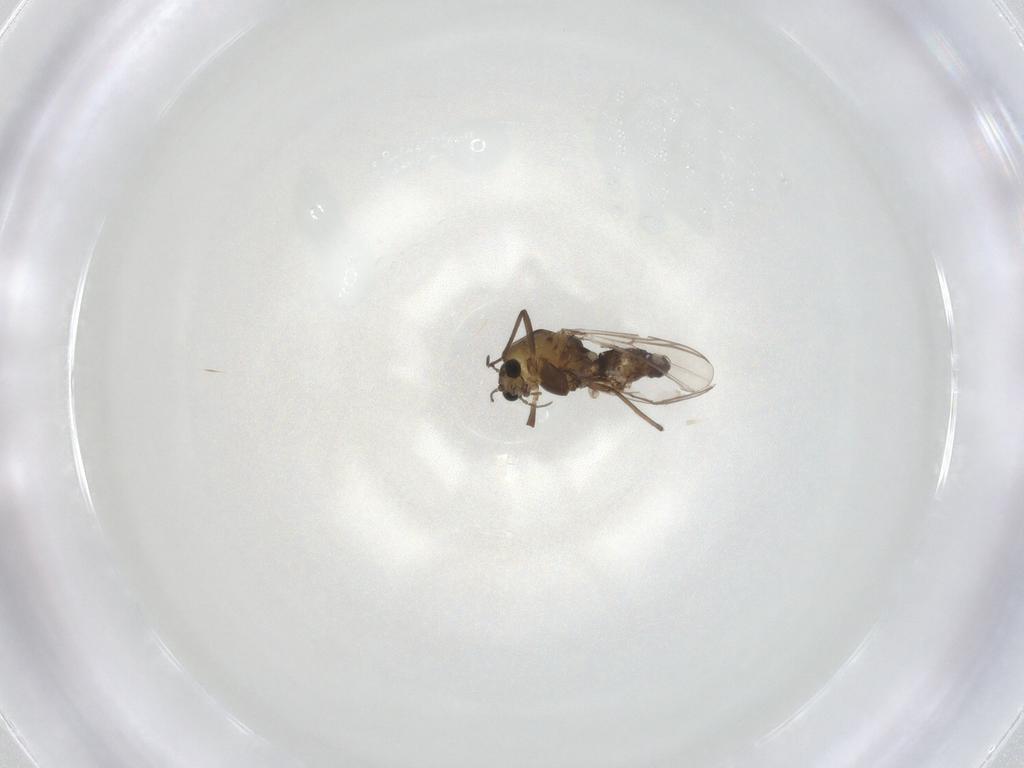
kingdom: Animalia
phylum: Arthropoda
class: Insecta
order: Diptera
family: Chironomidae
